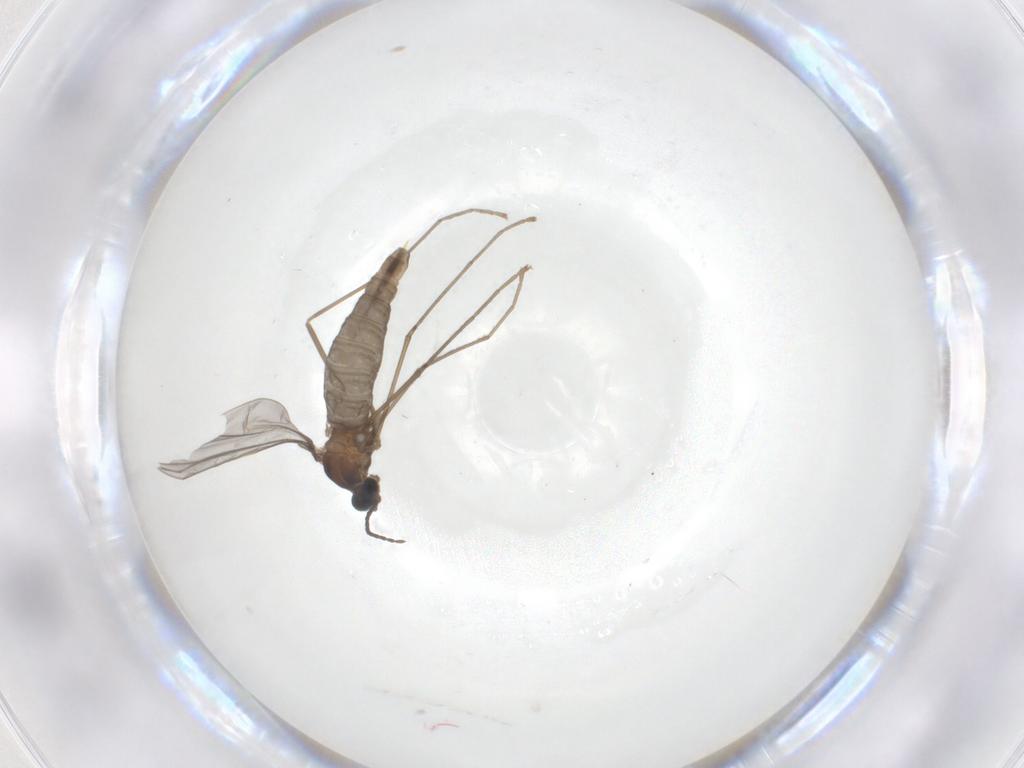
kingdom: Animalia
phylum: Arthropoda
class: Insecta
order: Diptera
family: Cecidomyiidae
